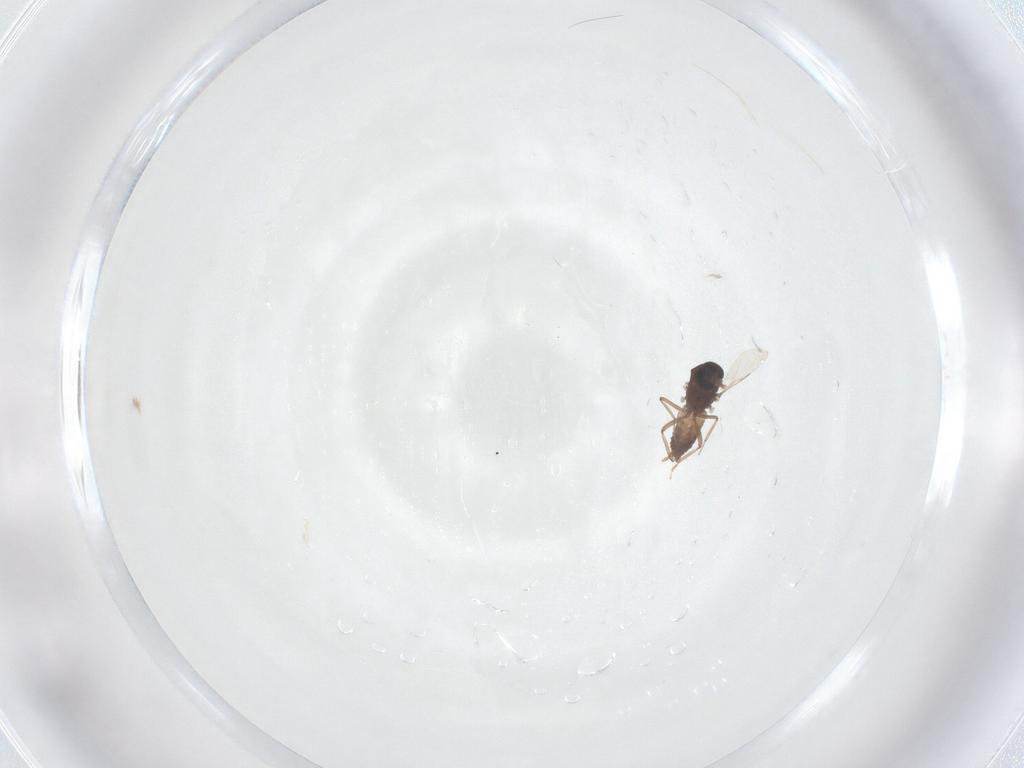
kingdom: Animalia
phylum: Arthropoda
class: Insecta
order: Diptera
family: Ceratopogonidae
